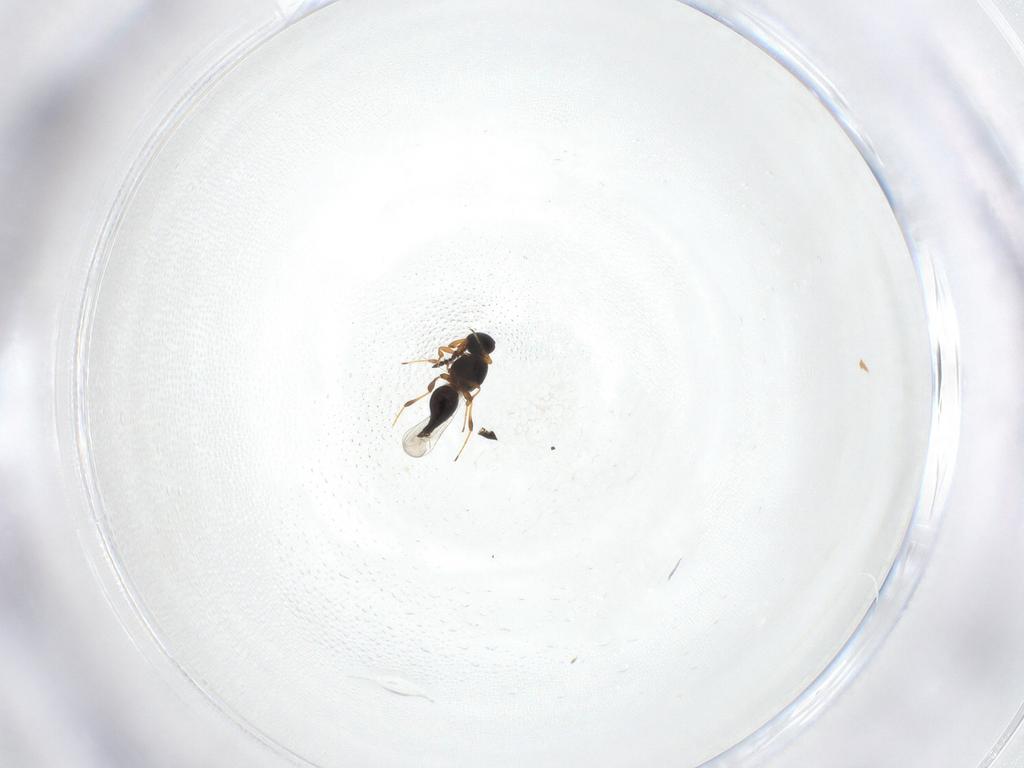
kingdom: Animalia
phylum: Arthropoda
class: Insecta
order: Hymenoptera
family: Platygastridae
